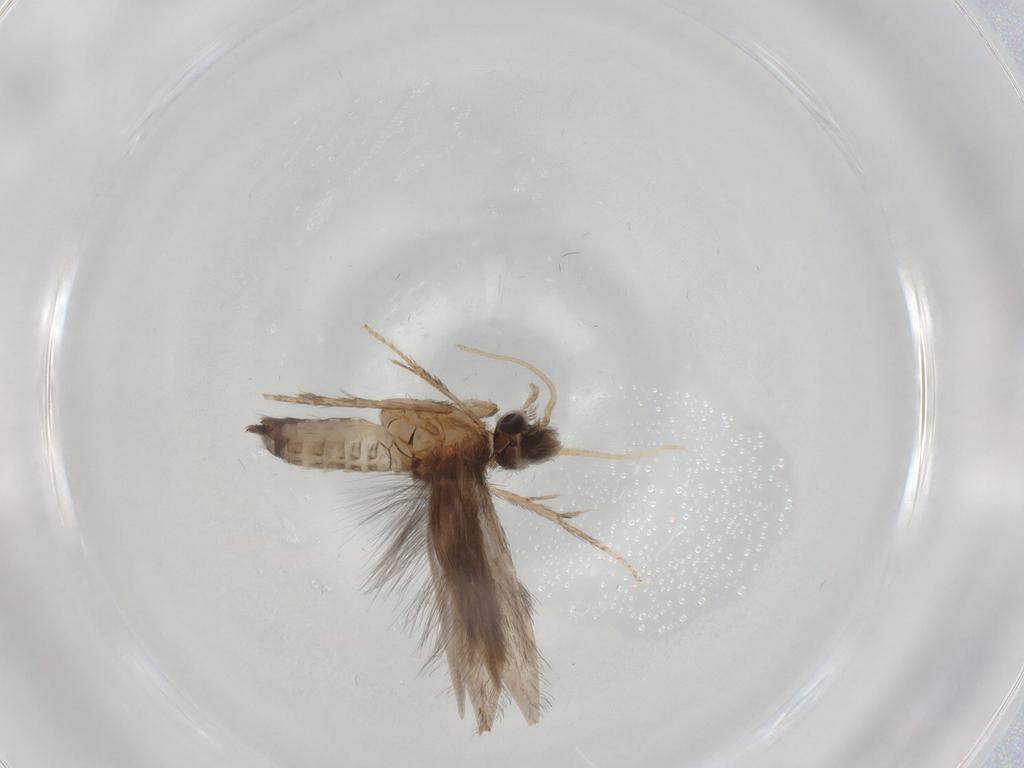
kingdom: Animalia
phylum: Arthropoda
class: Insecta
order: Trichoptera
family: Hydroptilidae
